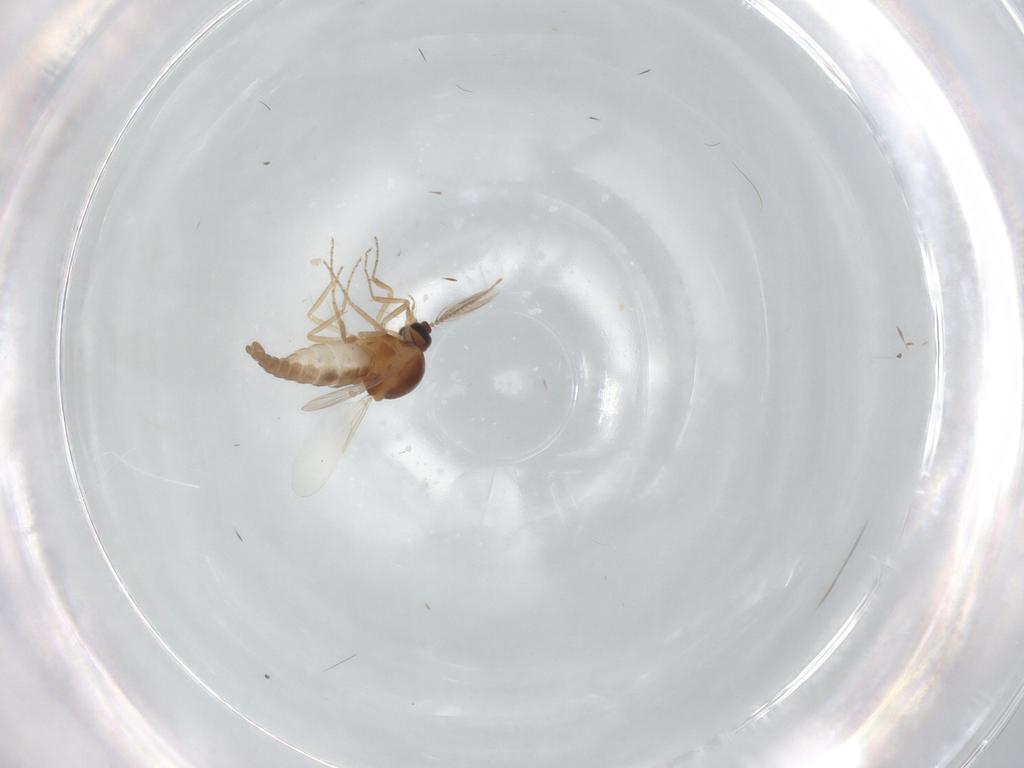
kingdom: Animalia
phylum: Arthropoda
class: Insecta
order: Diptera
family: Ceratopogonidae
